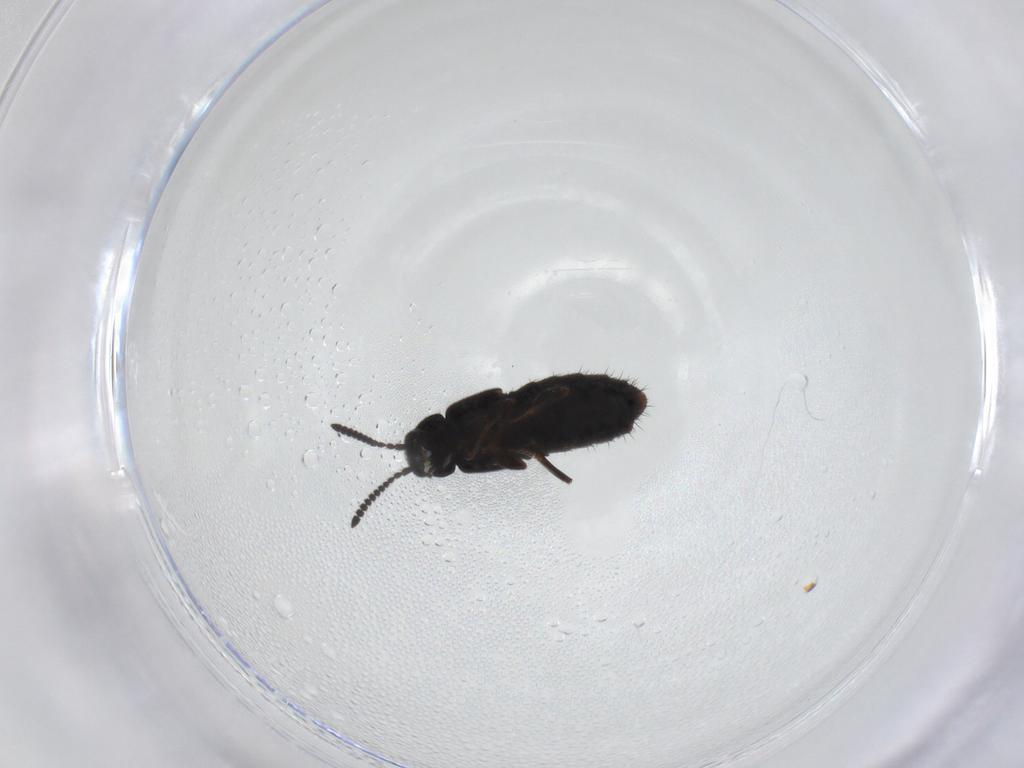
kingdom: Animalia
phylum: Arthropoda
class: Insecta
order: Coleoptera
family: Staphylinidae
